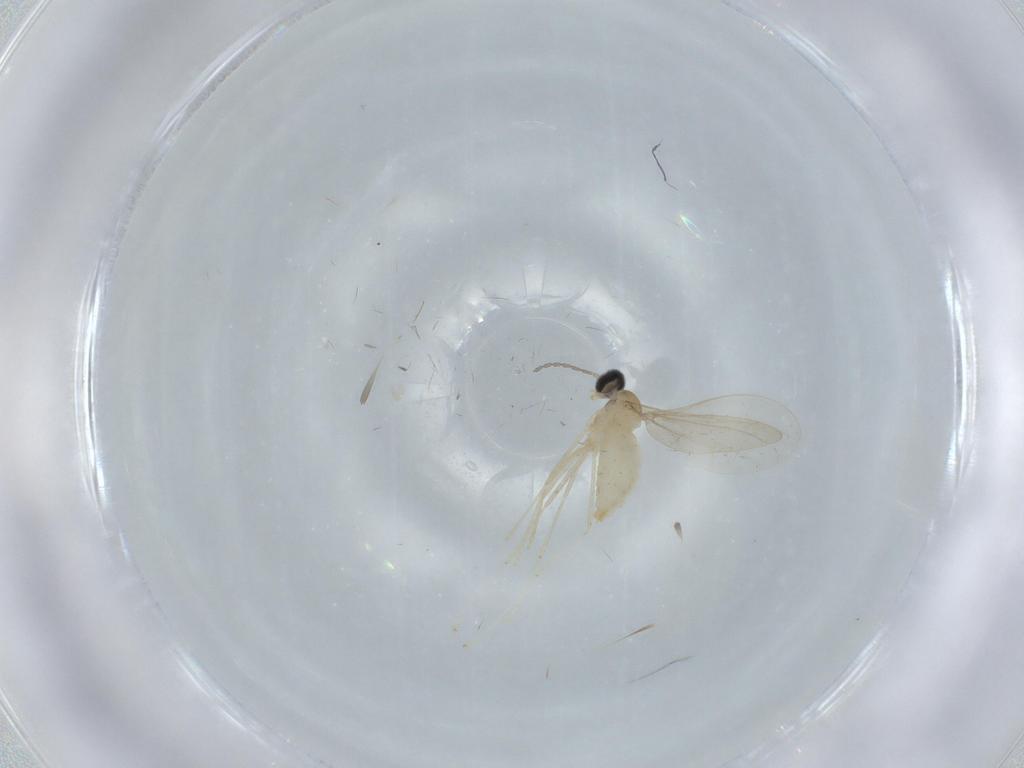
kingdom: Animalia
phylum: Arthropoda
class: Insecta
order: Diptera
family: Cecidomyiidae
